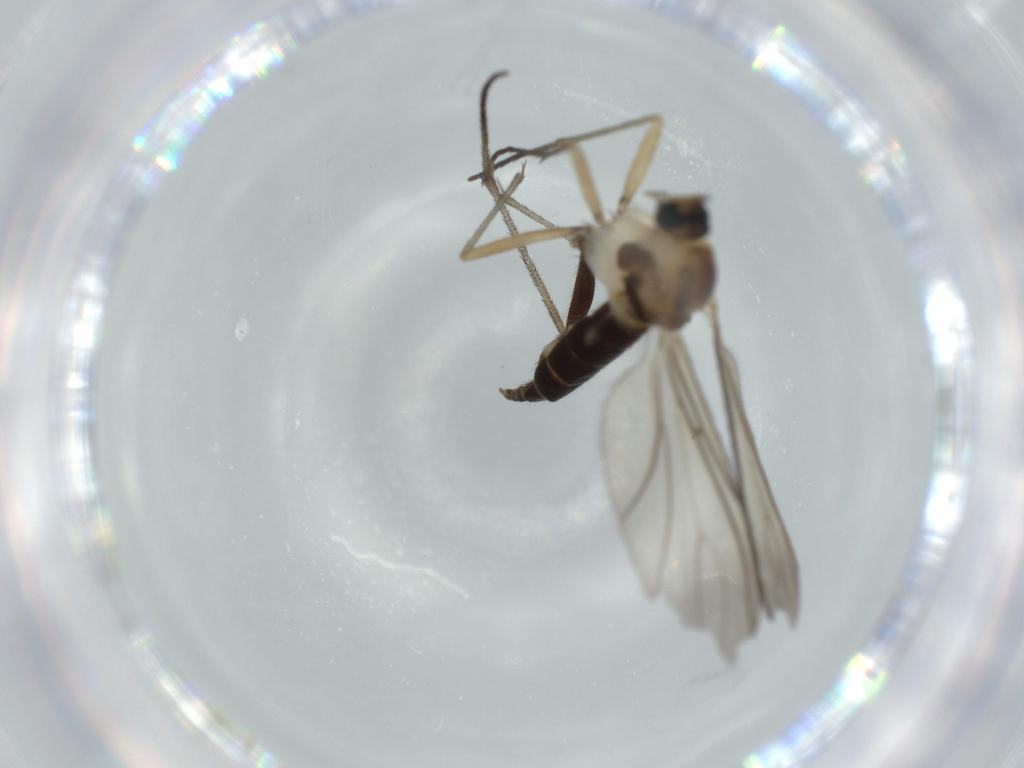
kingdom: Animalia
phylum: Arthropoda
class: Insecta
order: Diptera
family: Sciaridae
